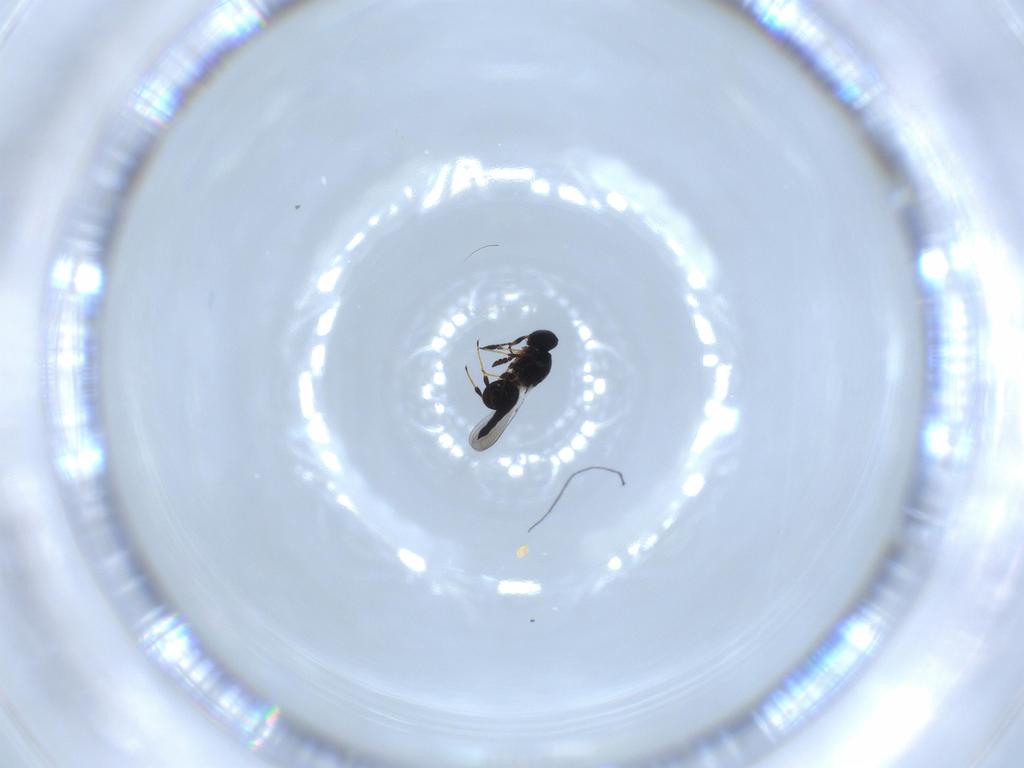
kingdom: Animalia
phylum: Arthropoda
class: Insecta
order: Hymenoptera
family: Platygastridae
